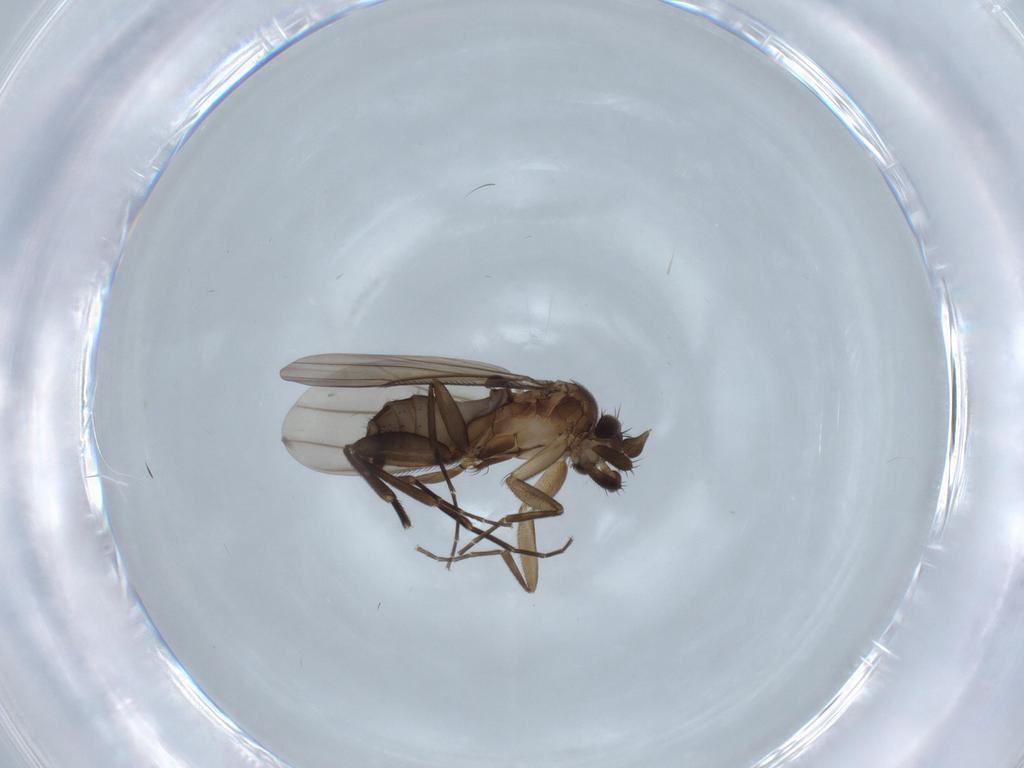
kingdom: Animalia
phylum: Arthropoda
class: Insecta
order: Diptera
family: Phoridae
